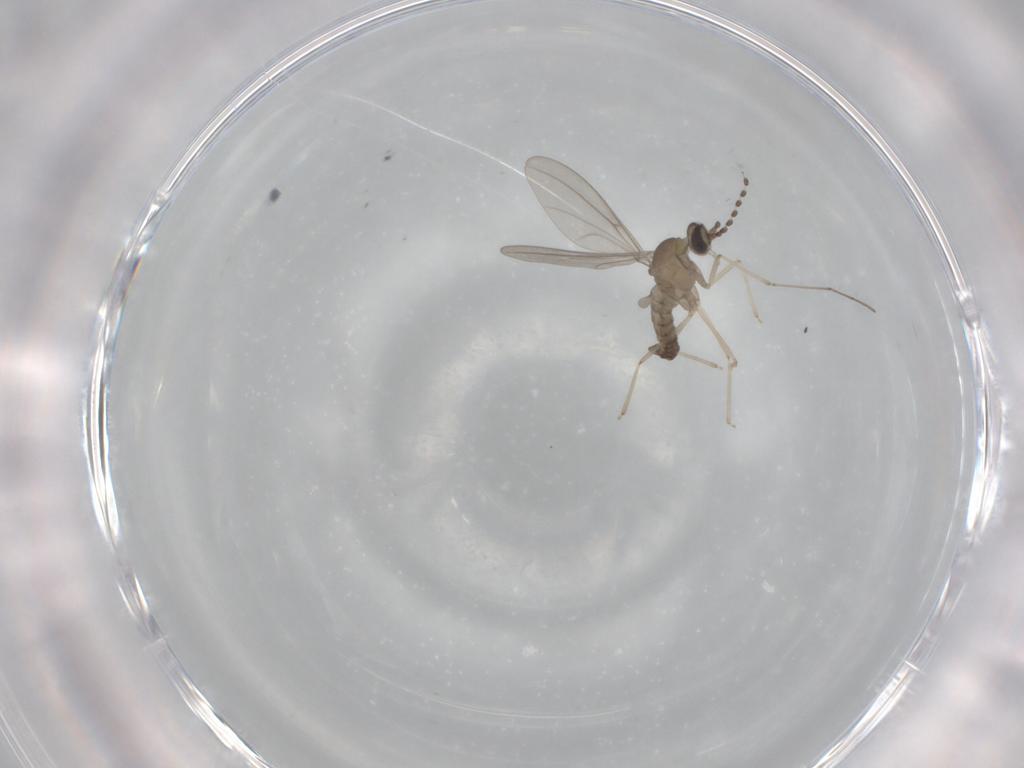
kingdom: Animalia
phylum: Arthropoda
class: Insecta
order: Diptera
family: Cecidomyiidae
